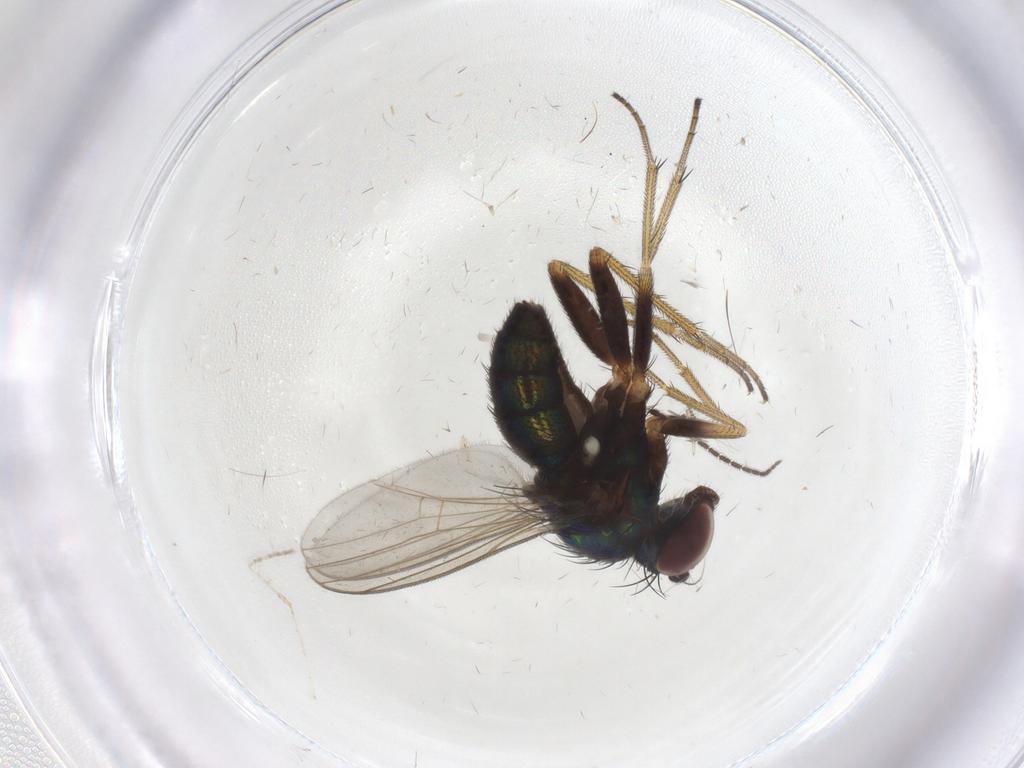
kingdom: Animalia
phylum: Arthropoda
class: Insecta
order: Diptera
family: Dolichopodidae
